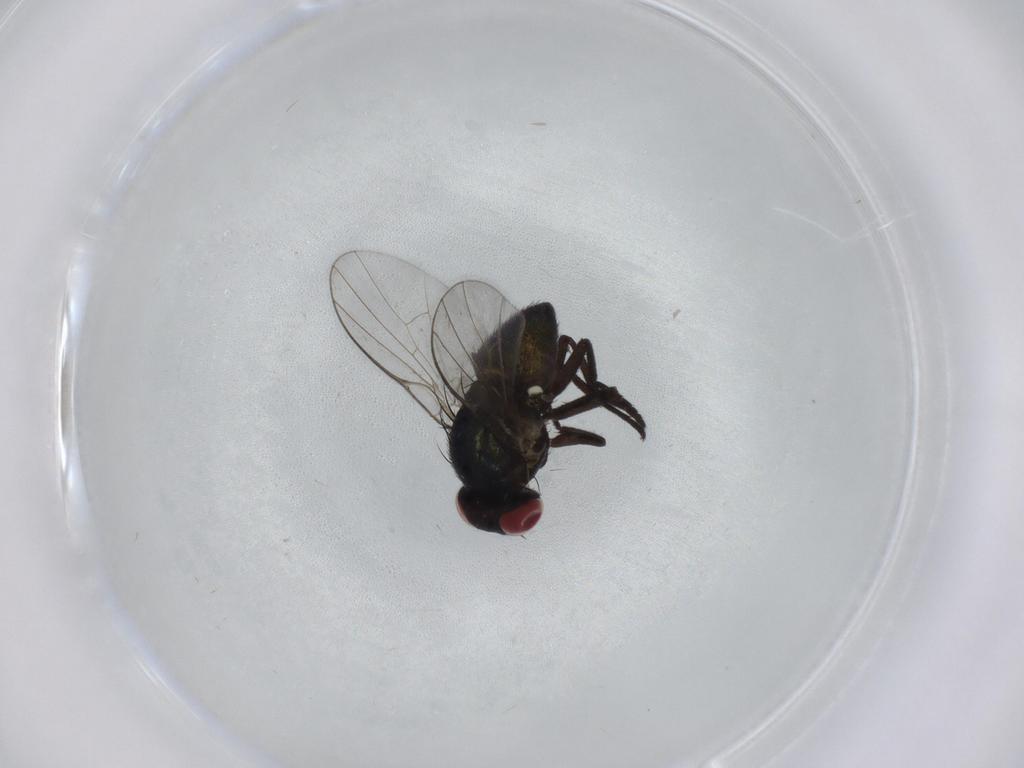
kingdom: Animalia
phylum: Arthropoda
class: Insecta
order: Diptera
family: Agromyzidae
